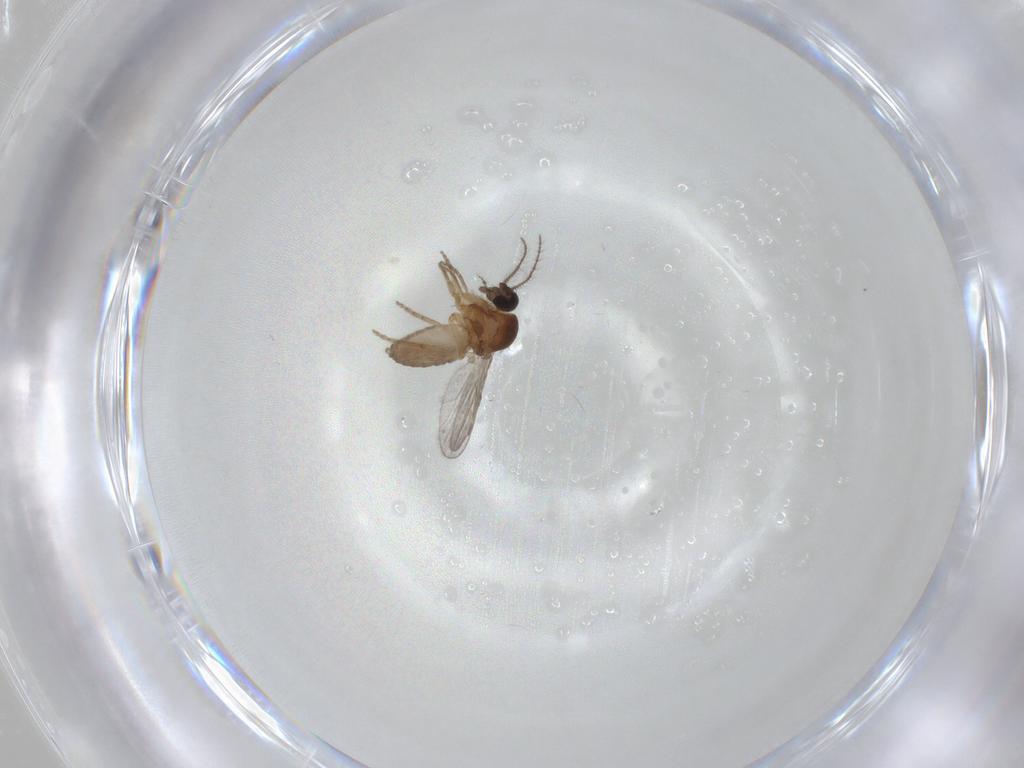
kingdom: Animalia
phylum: Arthropoda
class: Insecta
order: Diptera
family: Ceratopogonidae
